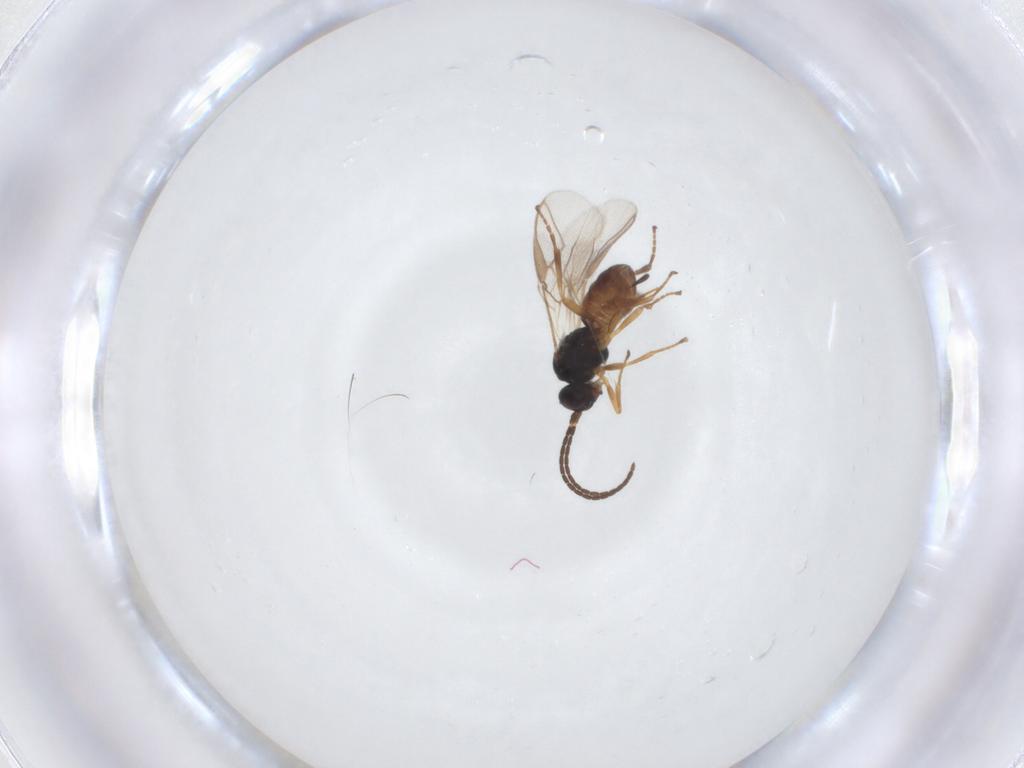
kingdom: Animalia
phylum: Arthropoda
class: Insecta
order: Hymenoptera
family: Braconidae
